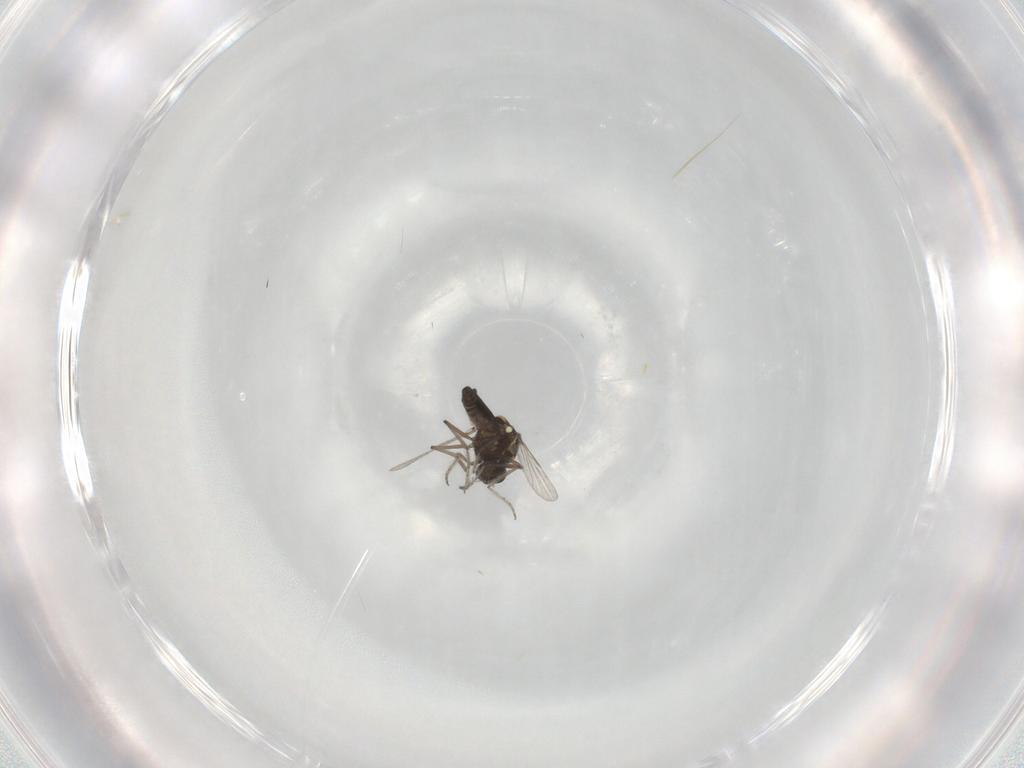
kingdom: Animalia
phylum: Arthropoda
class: Insecta
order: Diptera
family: Ceratopogonidae
